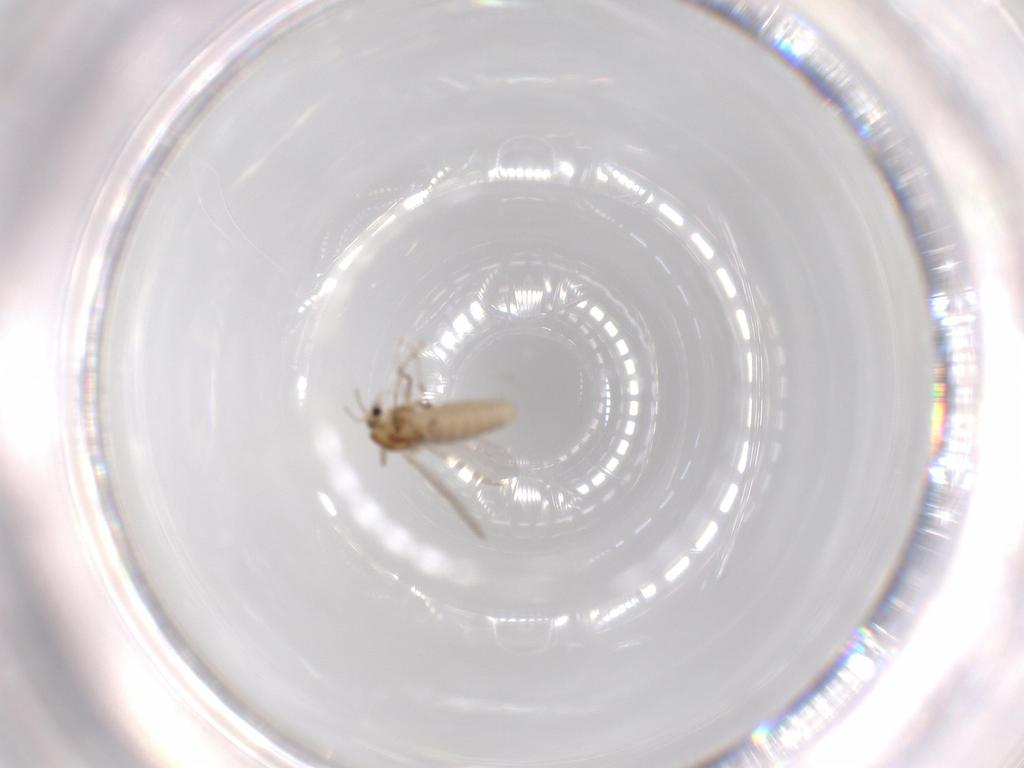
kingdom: Animalia
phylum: Arthropoda
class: Insecta
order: Diptera
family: Chironomidae
